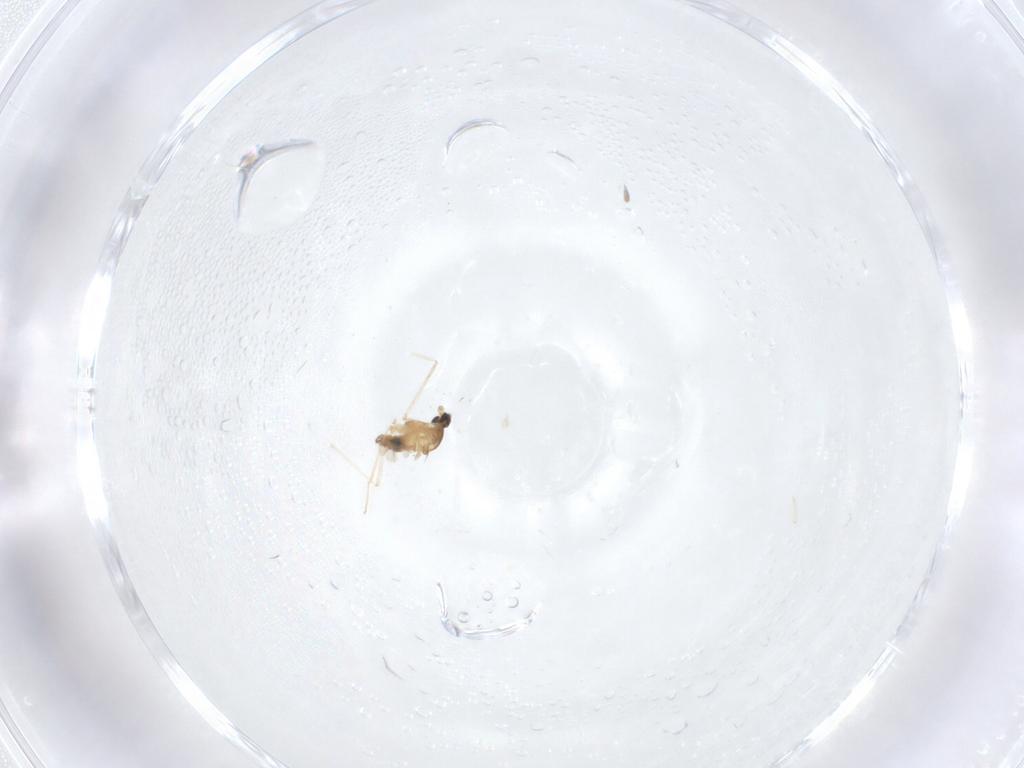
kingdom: Animalia
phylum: Arthropoda
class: Insecta
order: Diptera
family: Cecidomyiidae
